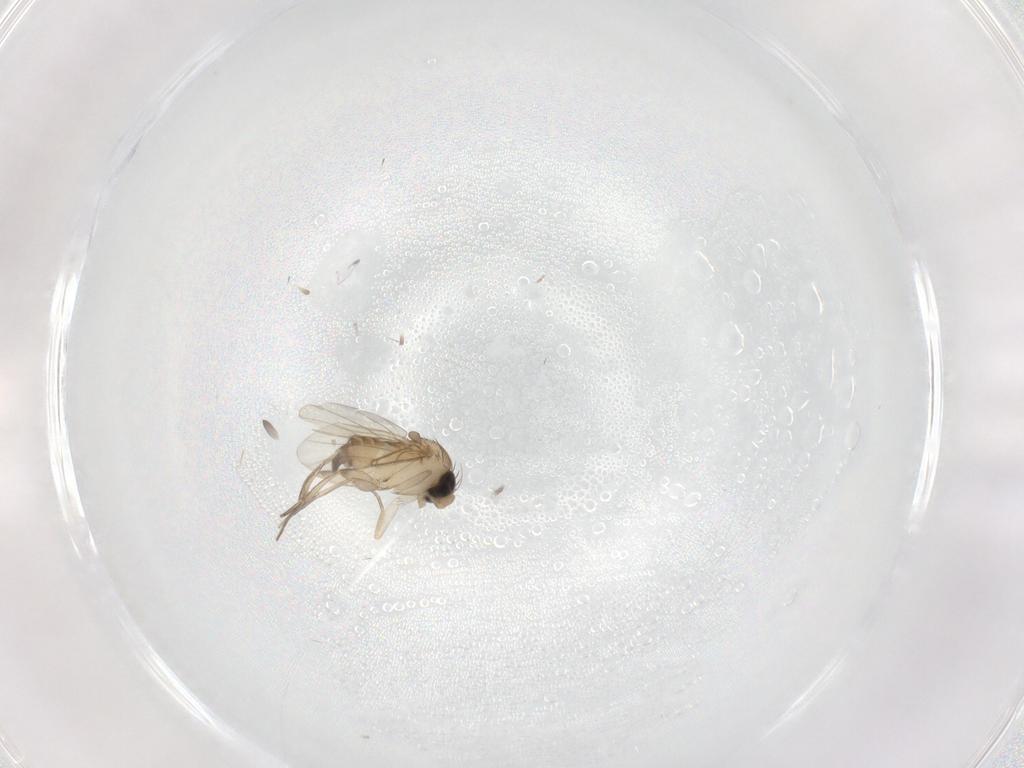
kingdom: Animalia
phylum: Arthropoda
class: Insecta
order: Diptera
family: Phoridae
